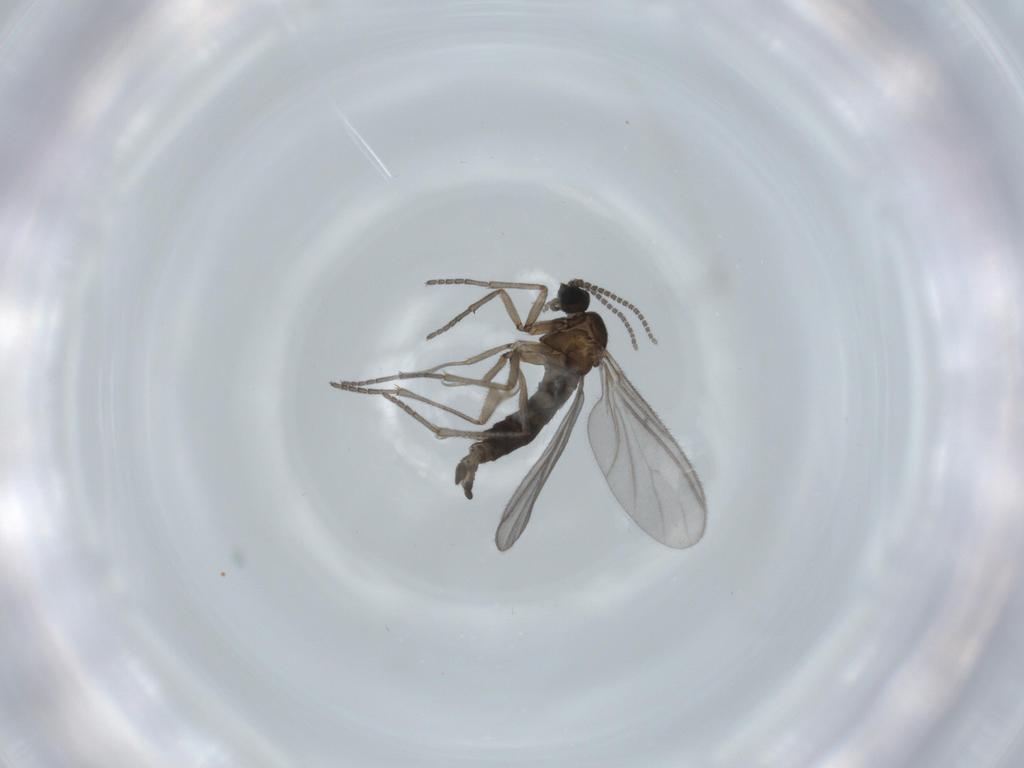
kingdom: Animalia
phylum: Arthropoda
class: Insecta
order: Diptera
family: Sciaridae
